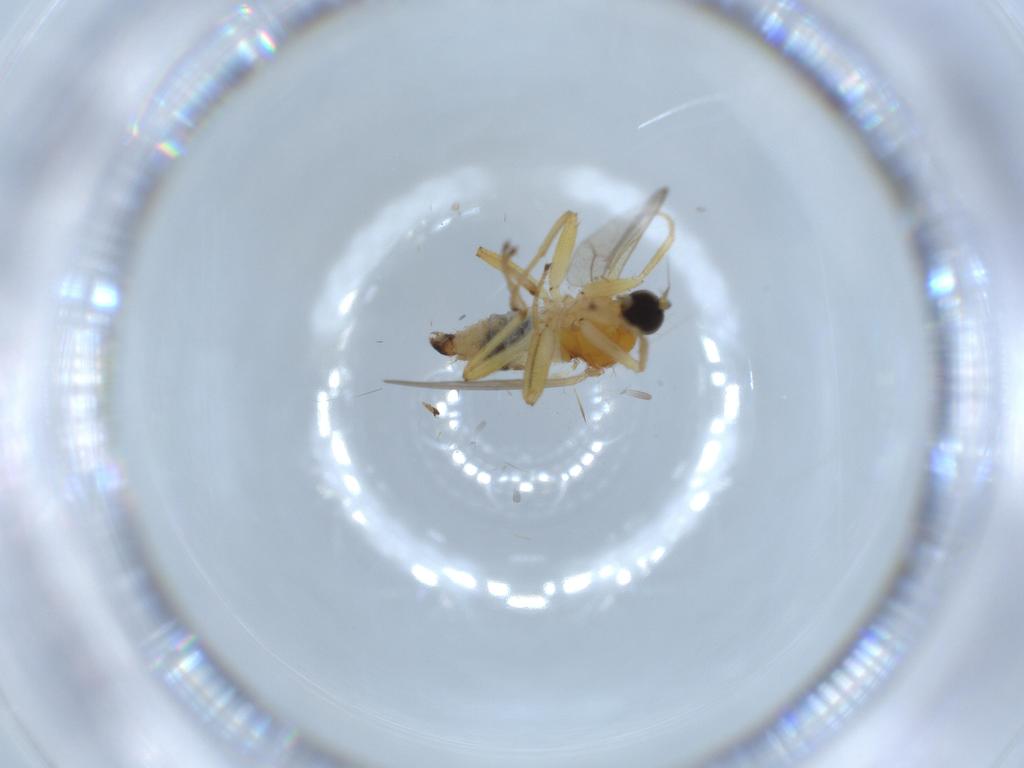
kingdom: Animalia
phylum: Arthropoda
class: Insecta
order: Diptera
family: Hybotidae
